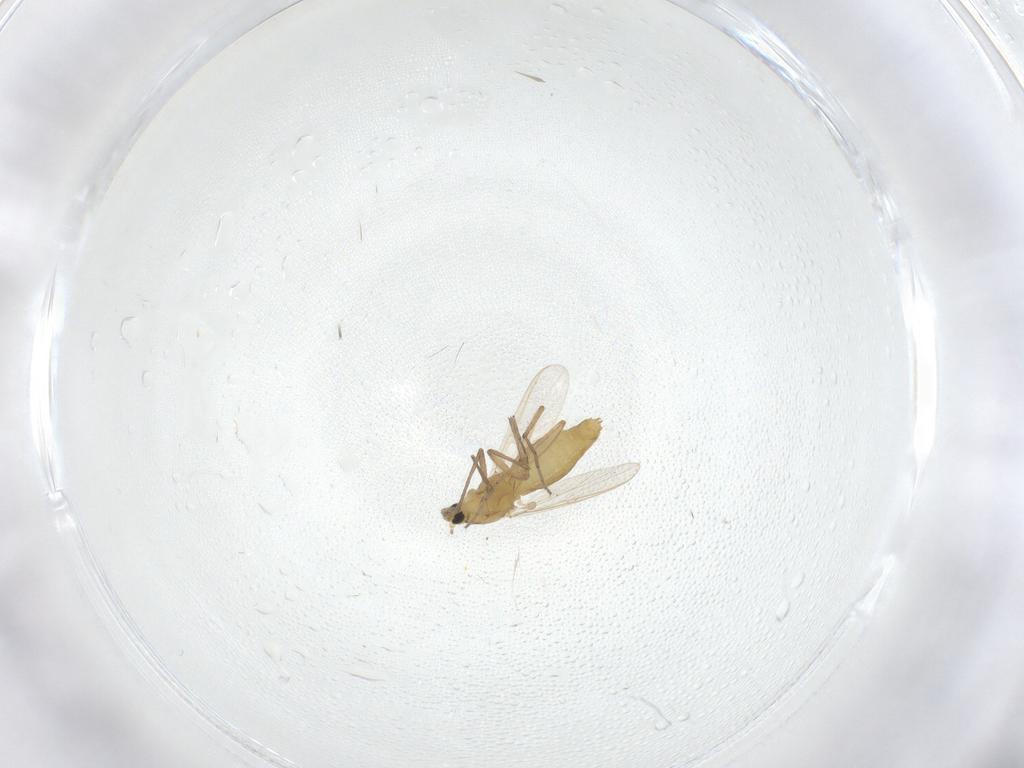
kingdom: Animalia
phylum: Arthropoda
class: Insecta
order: Diptera
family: Chironomidae
